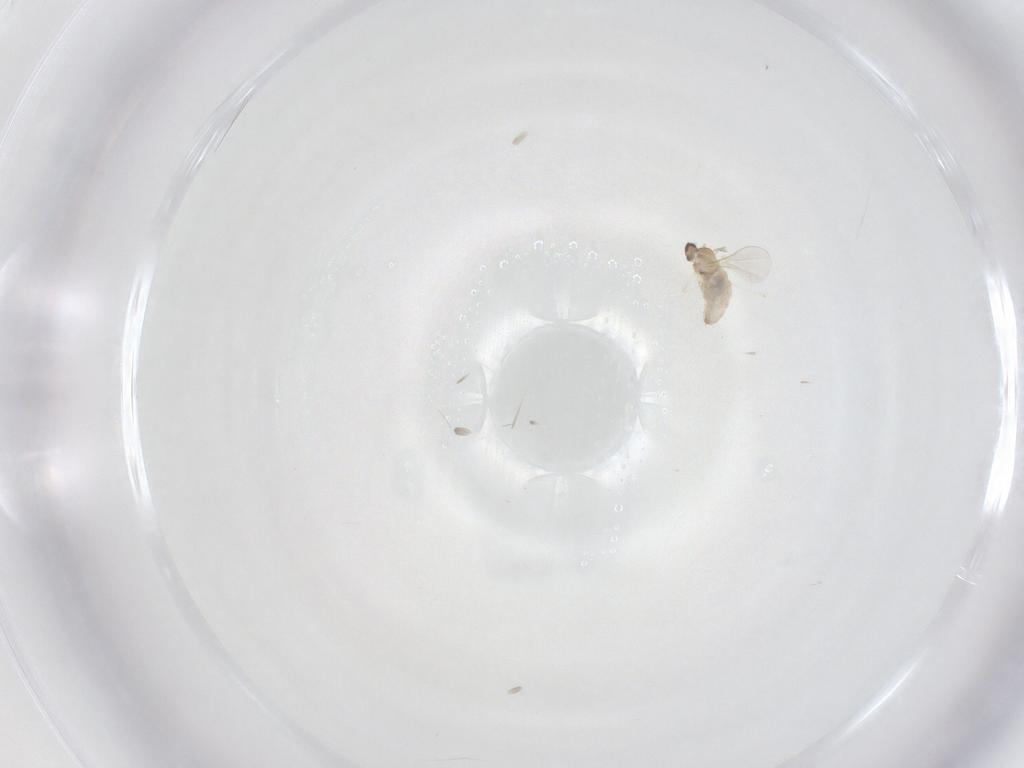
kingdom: Animalia
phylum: Arthropoda
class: Insecta
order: Diptera
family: Cecidomyiidae
